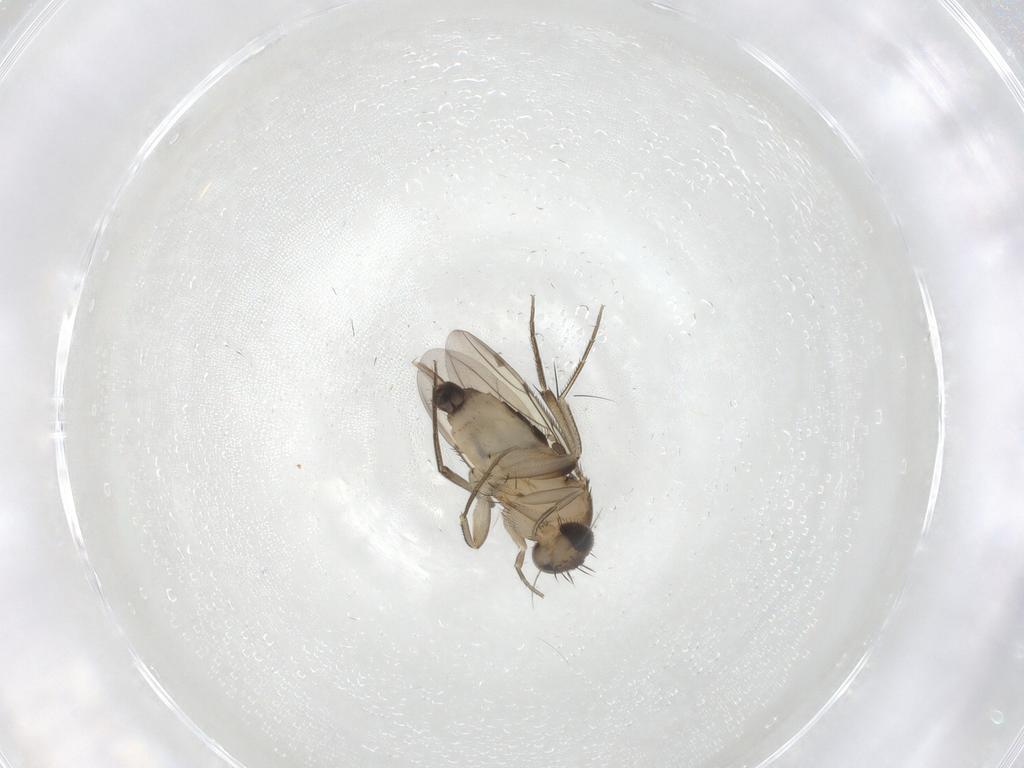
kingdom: Animalia
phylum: Arthropoda
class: Insecta
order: Diptera
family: Phoridae
